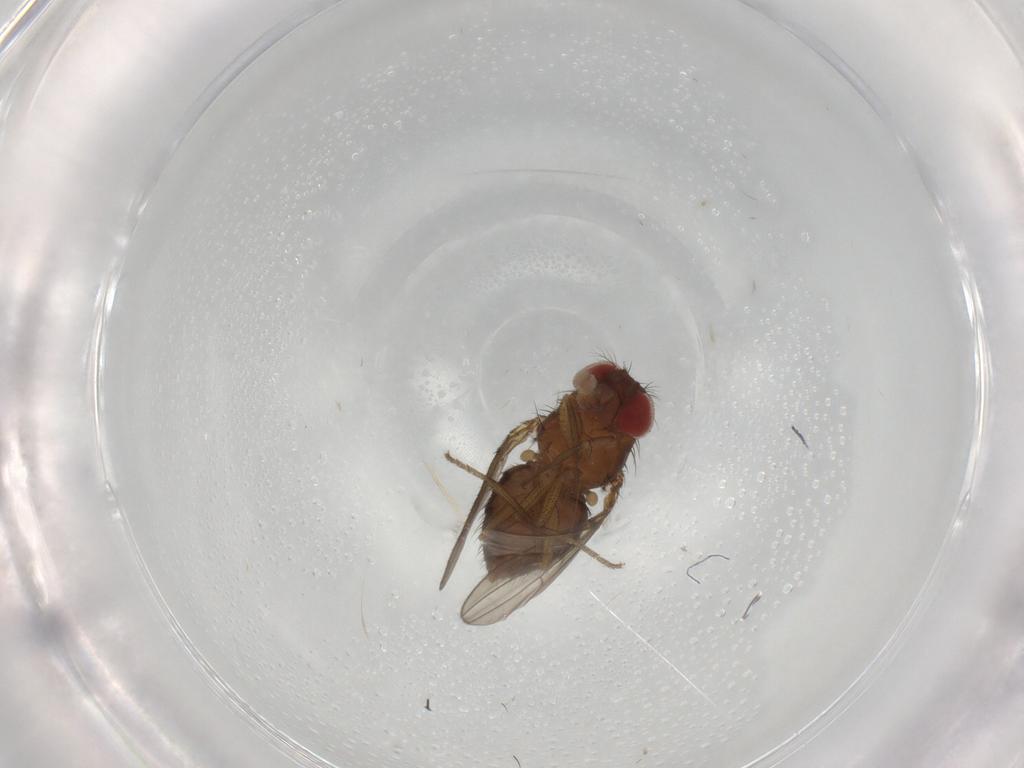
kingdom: Animalia
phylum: Arthropoda
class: Insecta
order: Diptera
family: Drosophilidae
